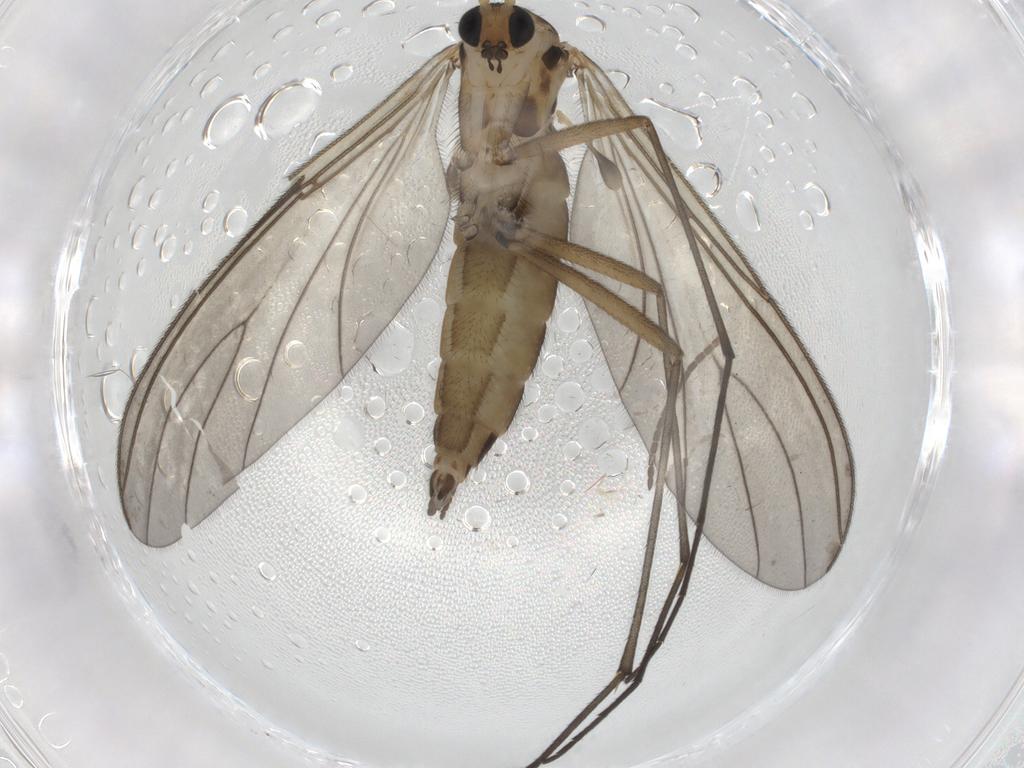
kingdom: Animalia
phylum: Arthropoda
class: Insecta
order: Diptera
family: Sciaridae
